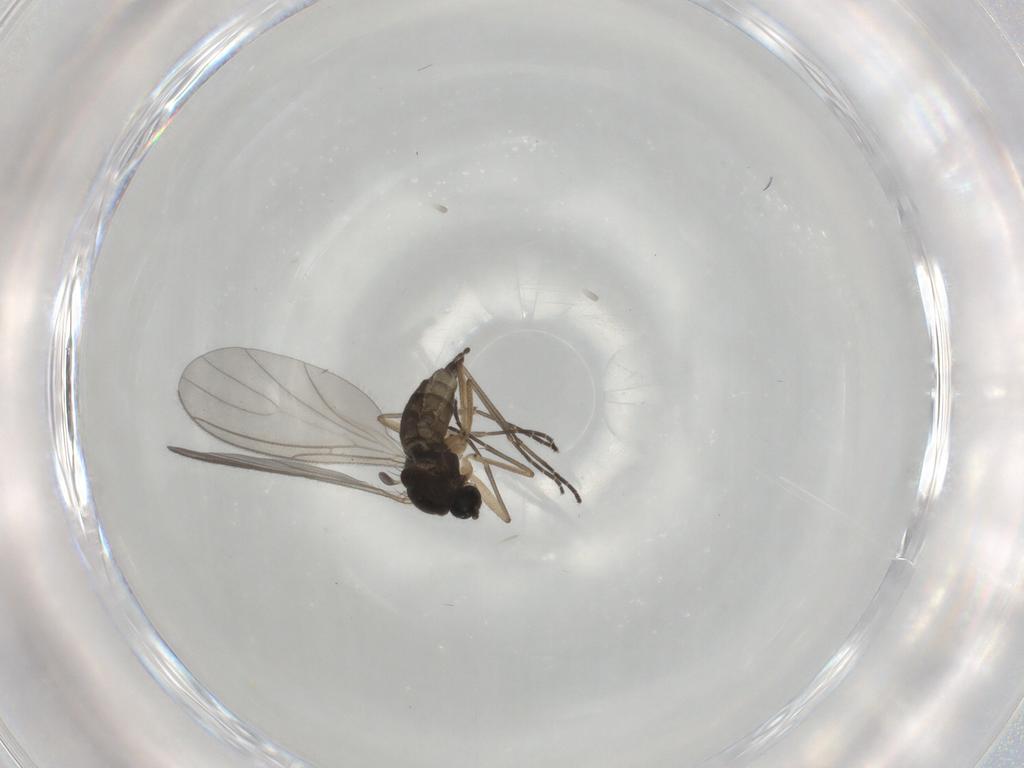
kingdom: Animalia
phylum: Arthropoda
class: Insecta
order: Diptera
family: Sciaridae
